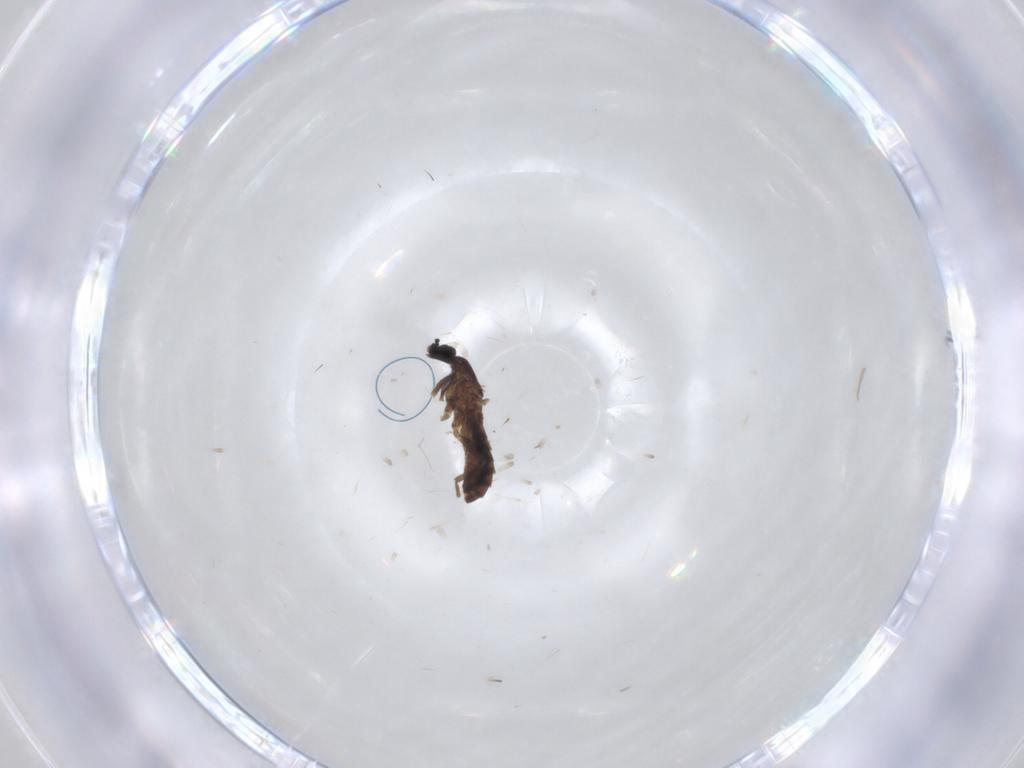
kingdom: Animalia
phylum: Arthropoda
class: Insecta
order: Diptera
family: Scatopsidae
